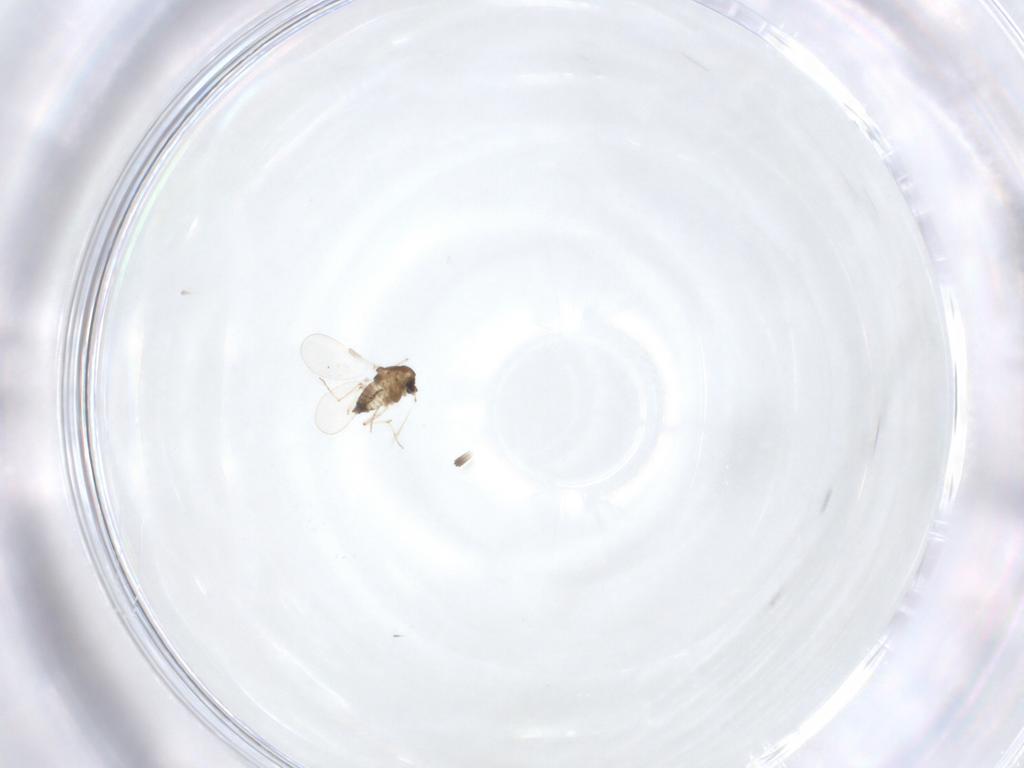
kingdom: Animalia
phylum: Arthropoda
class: Insecta
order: Diptera
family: Chironomidae
